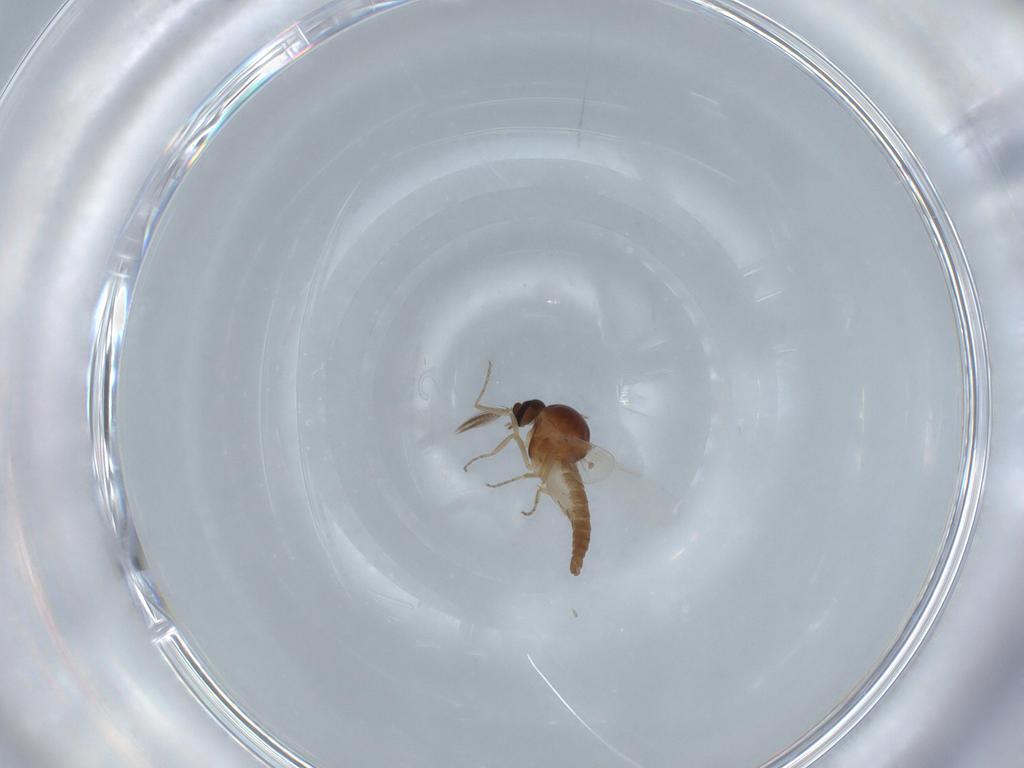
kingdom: Animalia
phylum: Arthropoda
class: Insecta
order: Diptera
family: Ceratopogonidae
